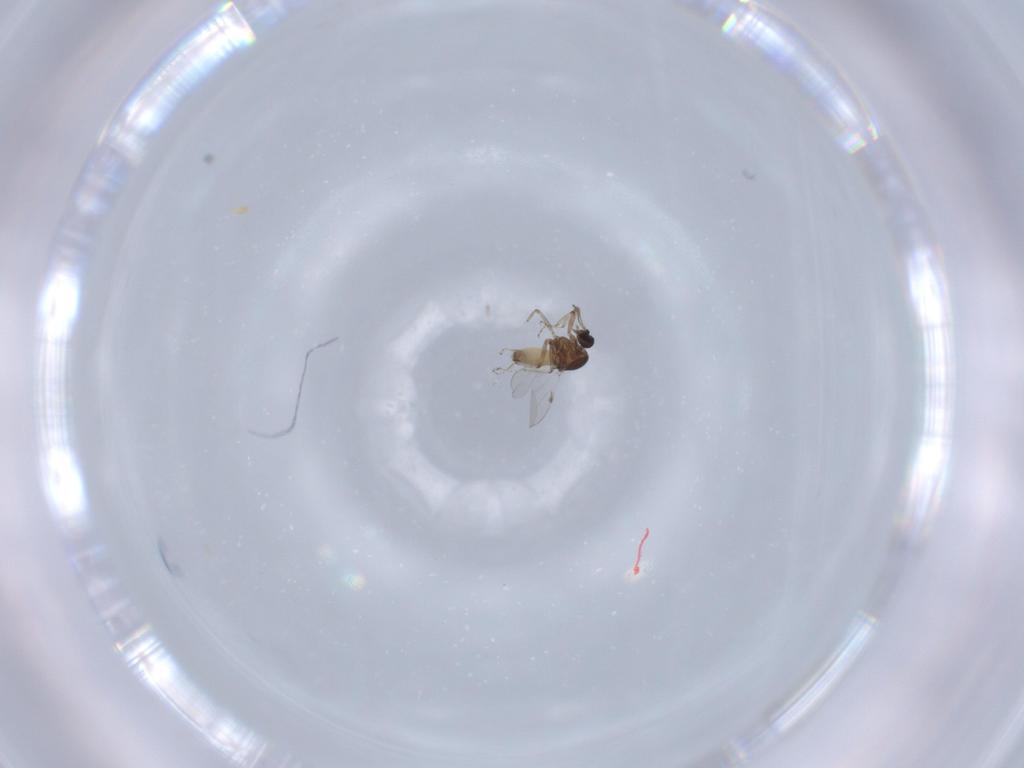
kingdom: Animalia
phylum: Arthropoda
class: Insecta
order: Diptera
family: Ceratopogonidae
